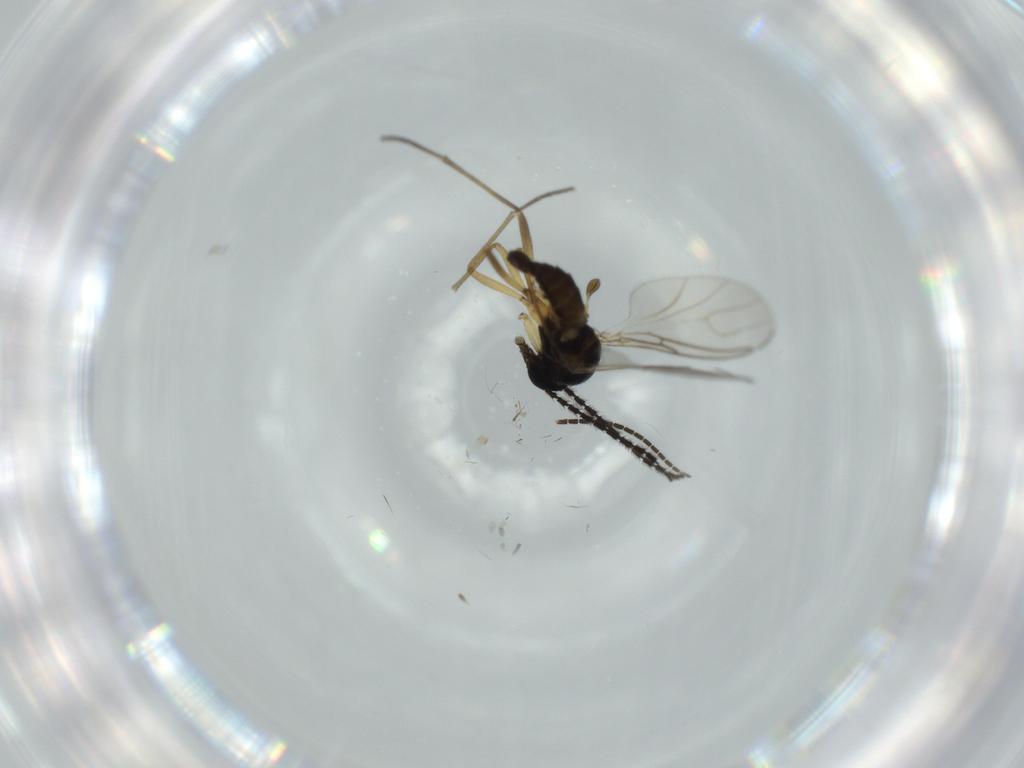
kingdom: Animalia
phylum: Arthropoda
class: Insecta
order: Diptera
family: Sciaridae
